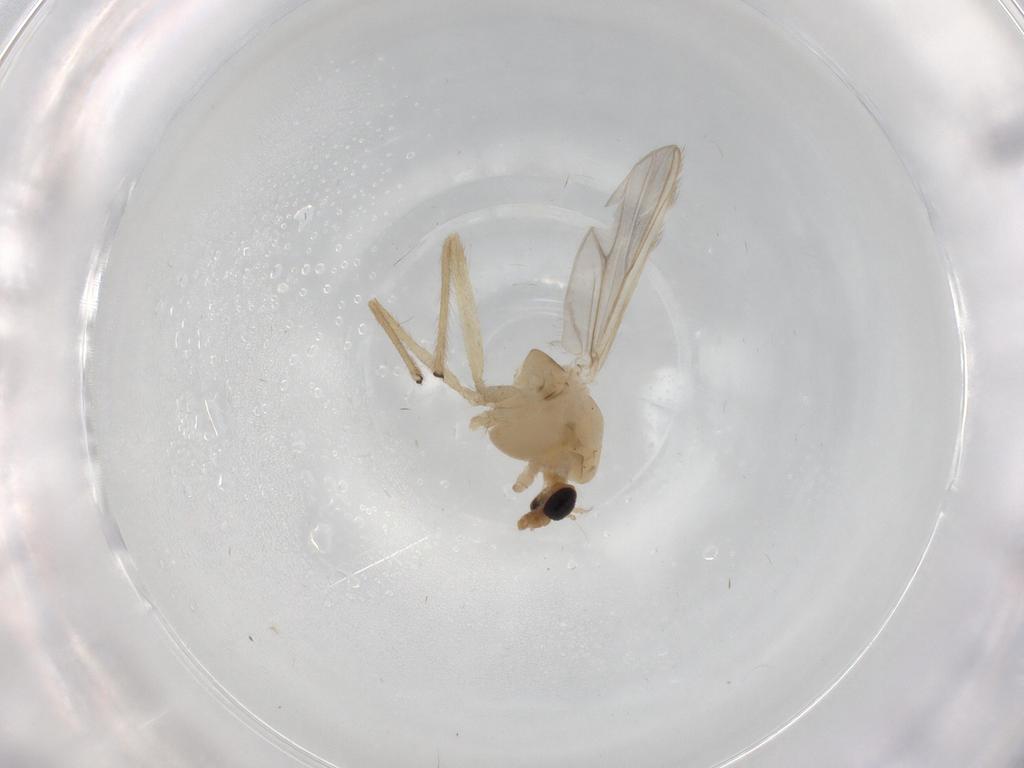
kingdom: Animalia
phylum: Arthropoda
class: Insecta
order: Diptera
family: Chironomidae
